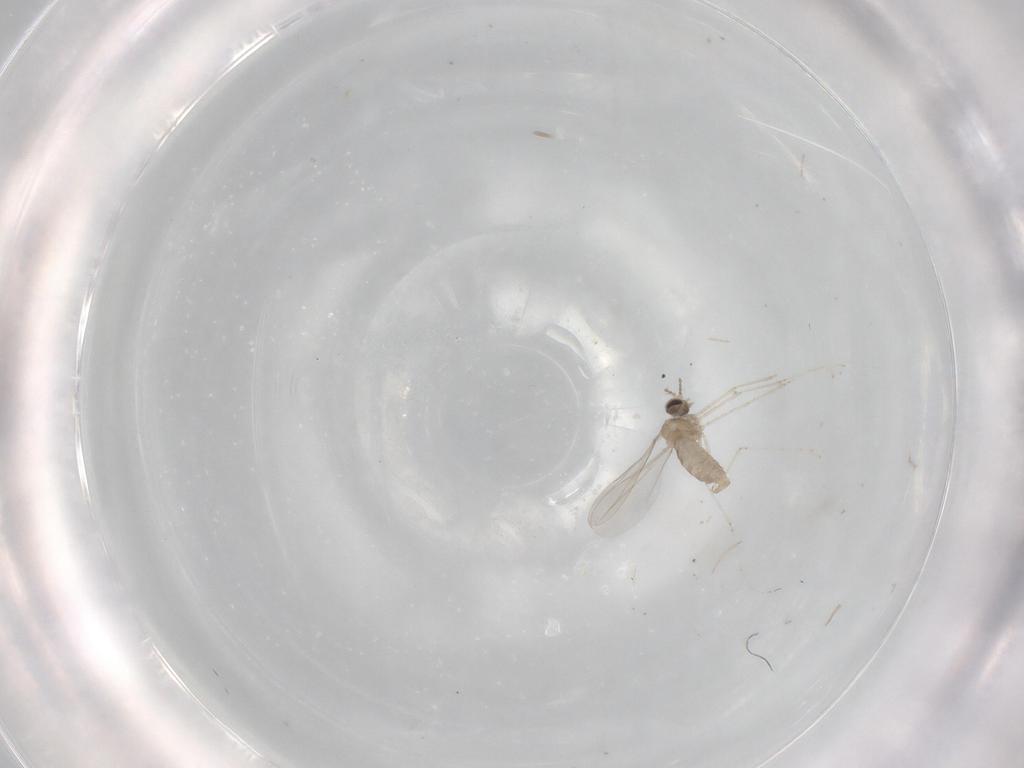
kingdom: Animalia
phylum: Arthropoda
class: Insecta
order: Diptera
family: Cecidomyiidae
